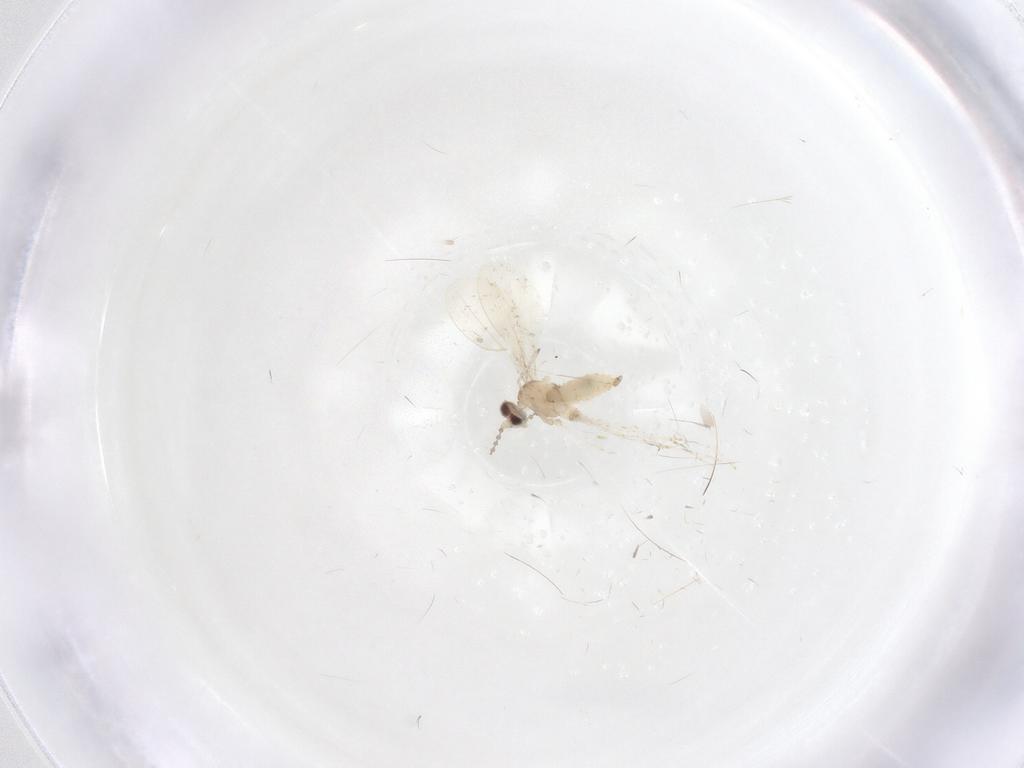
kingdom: Animalia
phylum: Arthropoda
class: Insecta
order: Diptera
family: Cecidomyiidae
